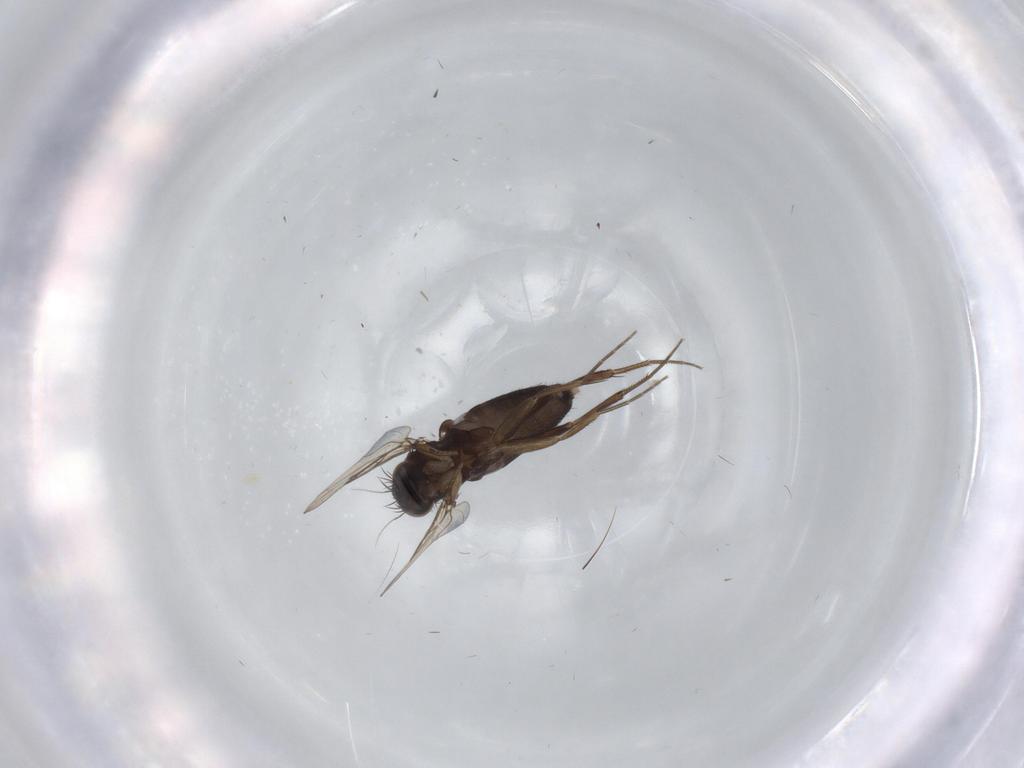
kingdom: Animalia
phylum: Arthropoda
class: Insecta
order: Diptera
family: Phoridae
